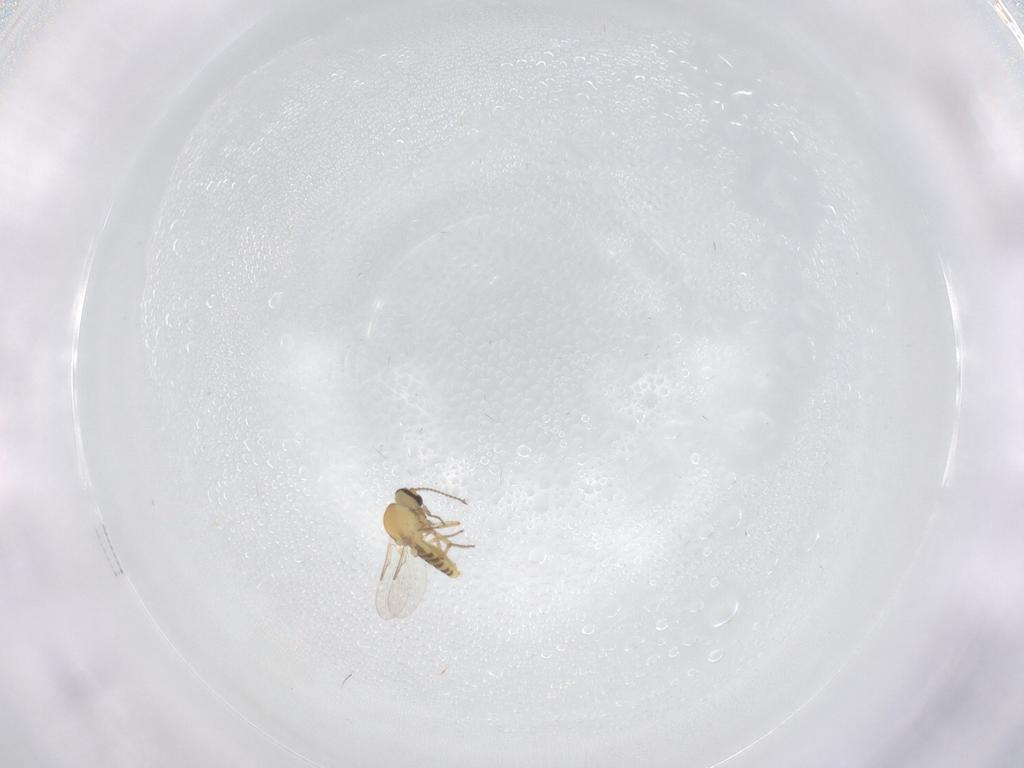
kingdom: Animalia
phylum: Arthropoda
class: Insecta
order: Diptera
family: Ceratopogonidae
